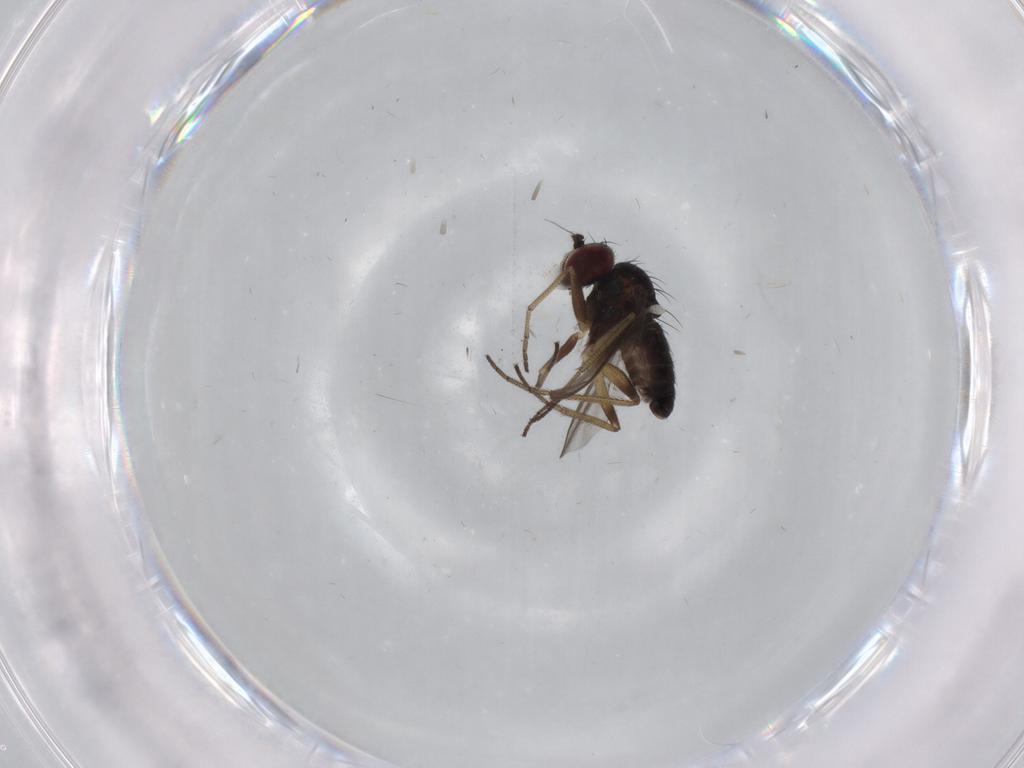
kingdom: Animalia
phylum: Arthropoda
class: Insecta
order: Diptera
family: Dolichopodidae
